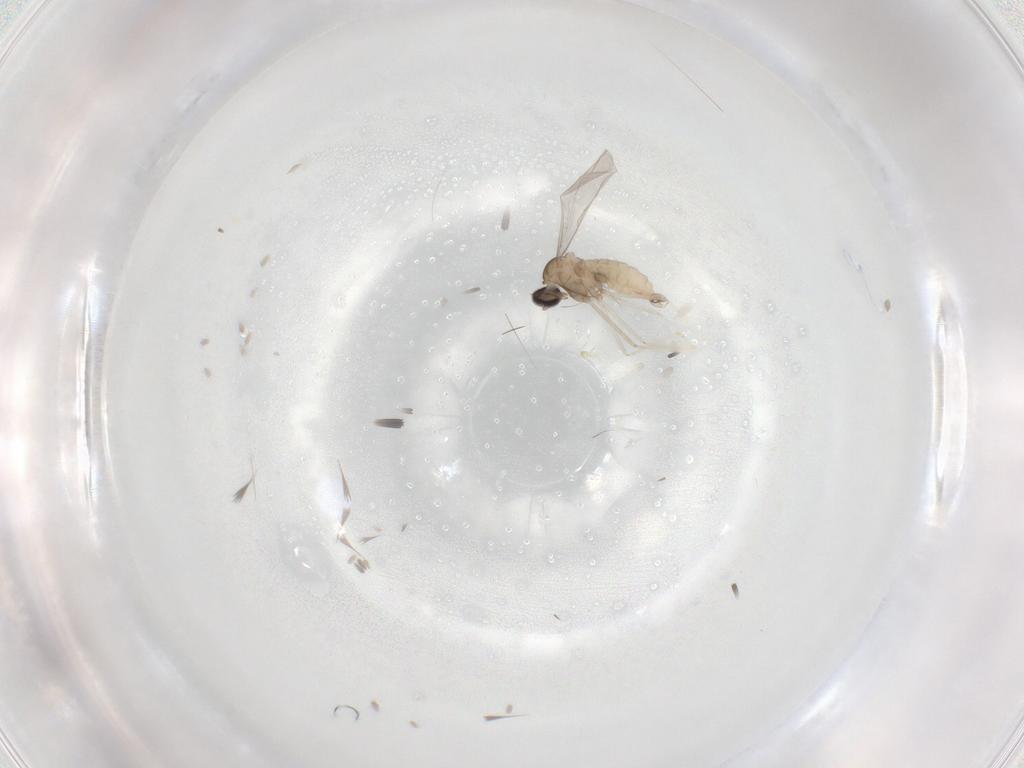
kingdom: Animalia
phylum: Arthropoda
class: Insecta
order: Diptera
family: Cecidomyiidae
